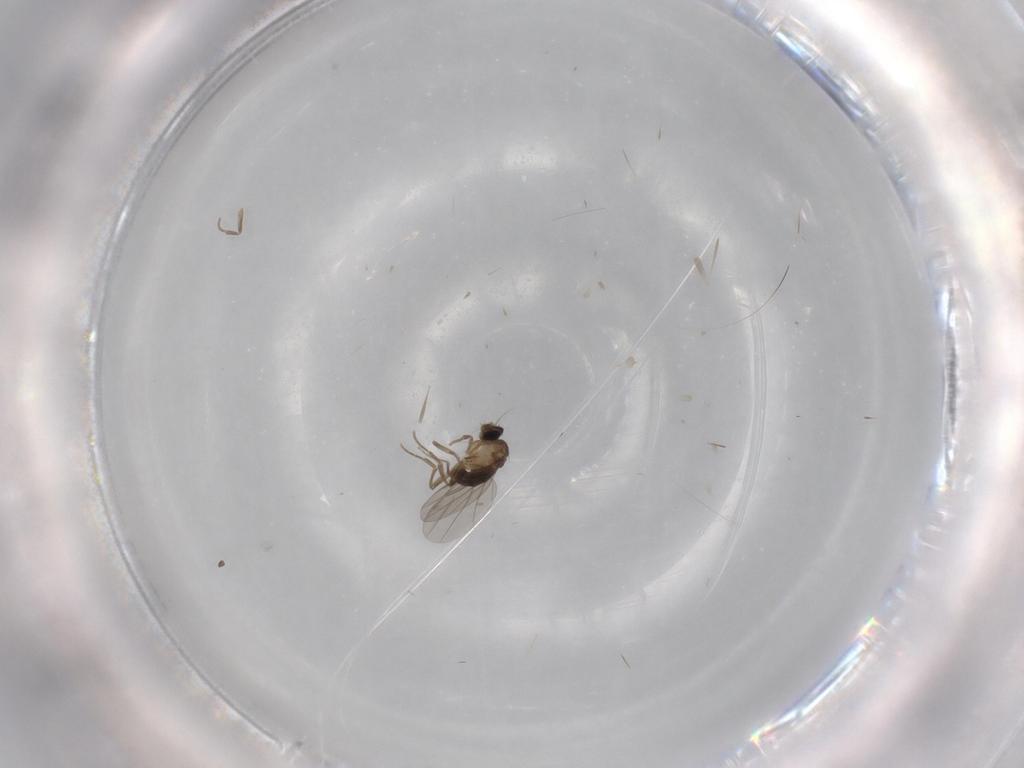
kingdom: Animalia
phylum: Arthropoda
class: Insecta
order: Diptera
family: Phoridae
